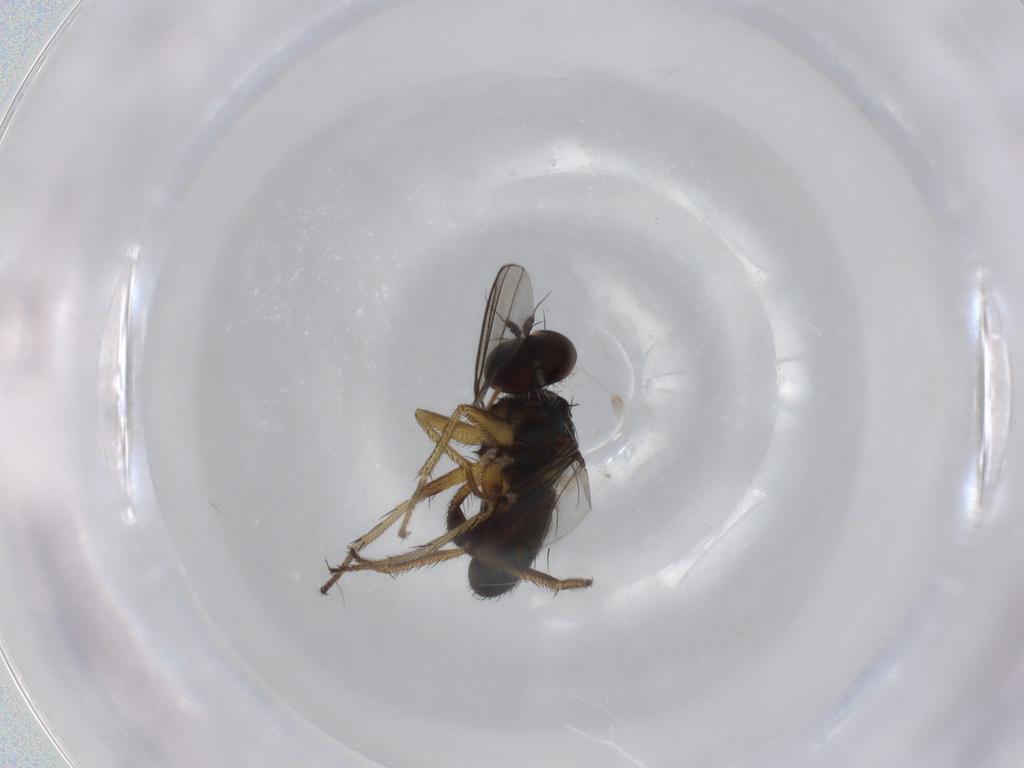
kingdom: Animalia
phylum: Arthropoda
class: Insecta
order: Diptera
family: Dolichopodidae
